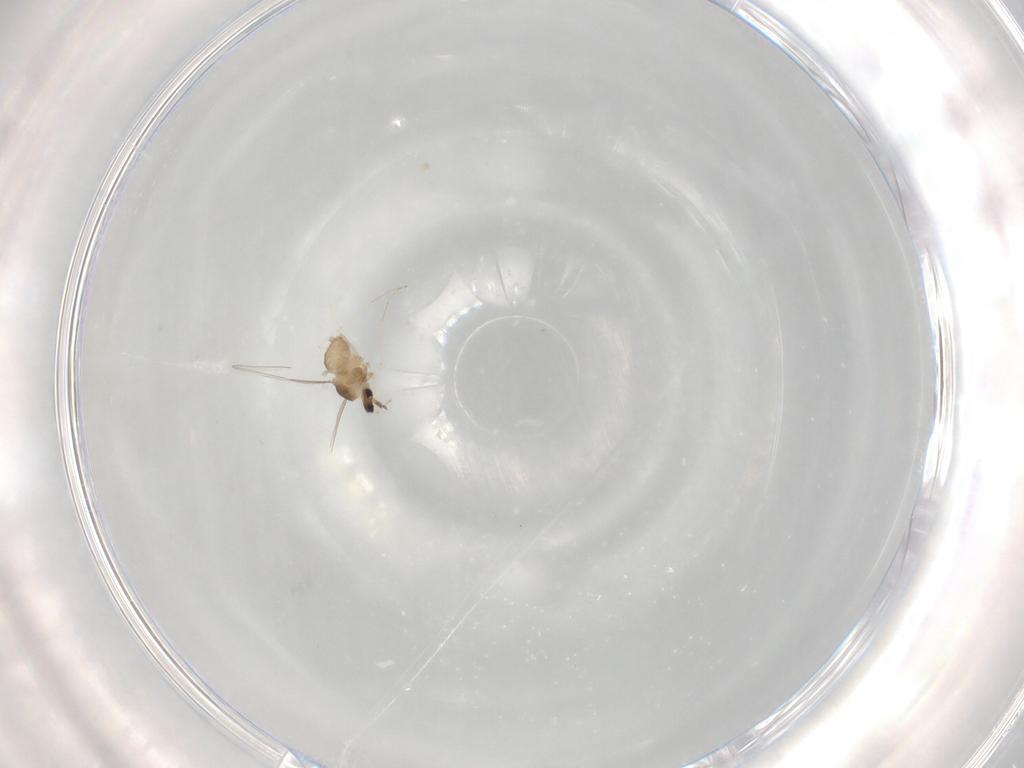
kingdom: Animalia
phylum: Arthropoda
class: Insecta
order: Diptera
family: Cecidomyiidae
